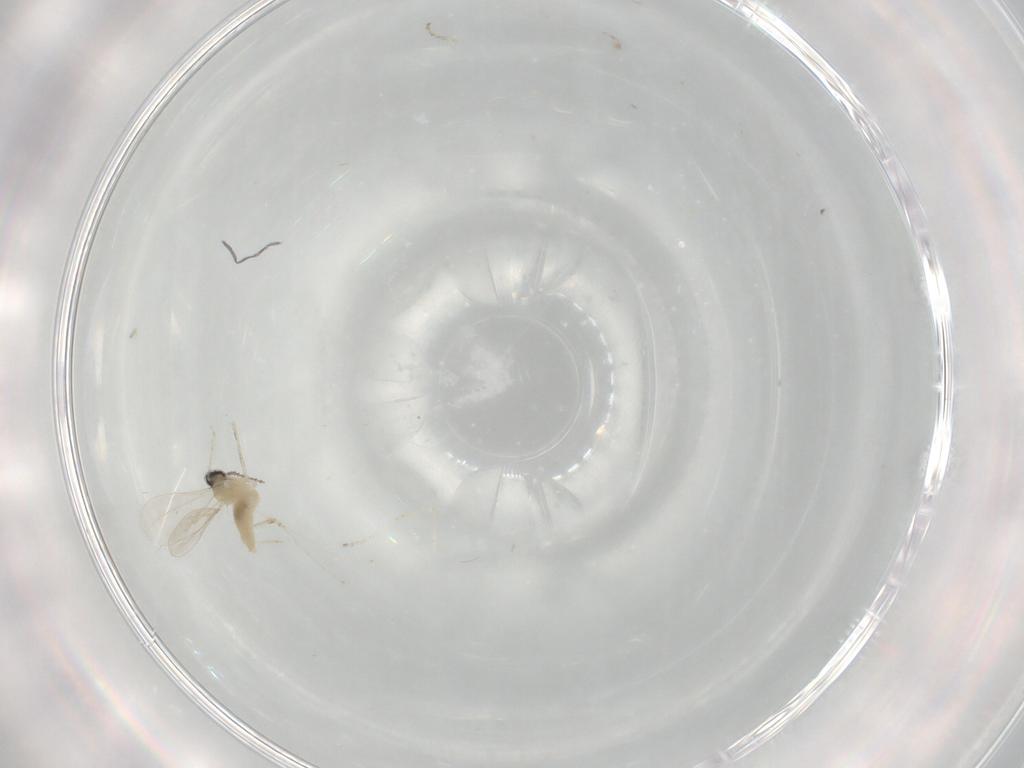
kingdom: Animalia
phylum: Arthropoda
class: Insecta
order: Diptera
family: Cecidomyiidae
